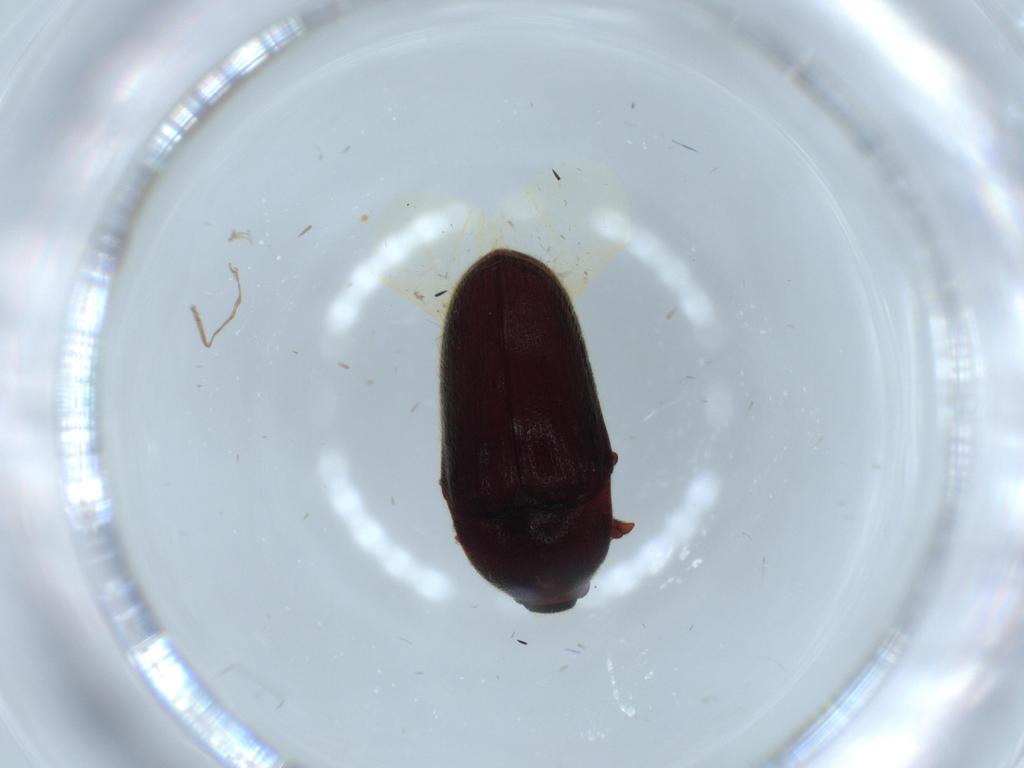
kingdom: Animalia
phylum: Arthropoda
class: Insecta
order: Coleoptera
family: Throscidae
